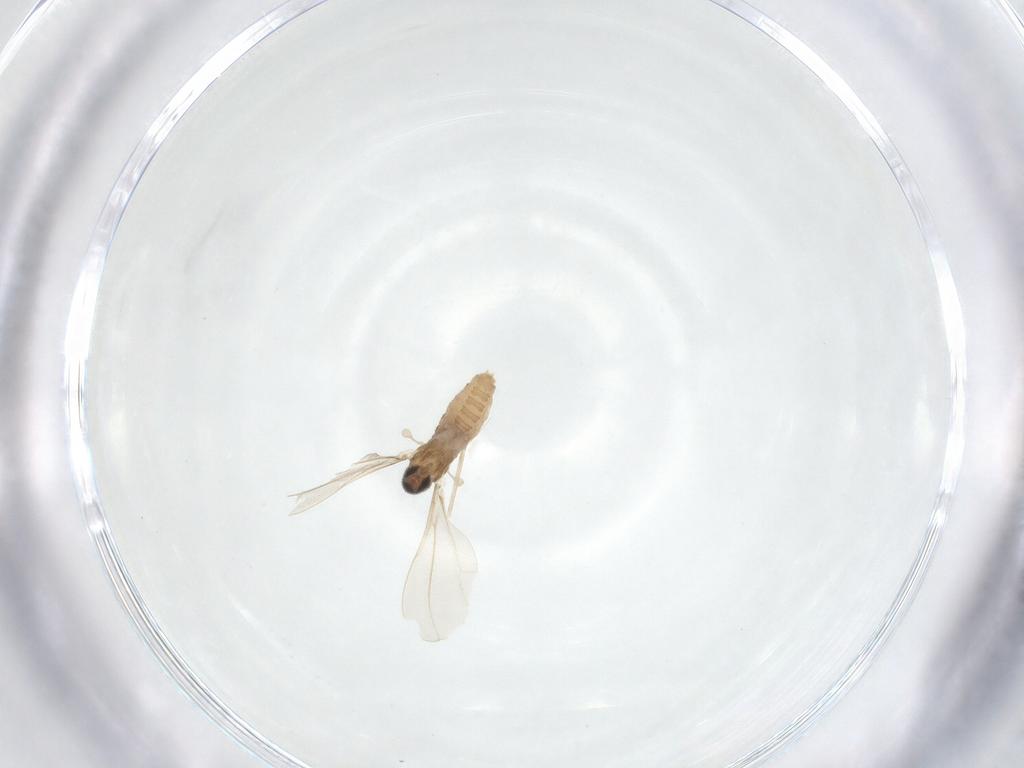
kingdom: Animalia
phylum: Arthropoda
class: Insecta
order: Diptera
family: Cecidomyiidae
